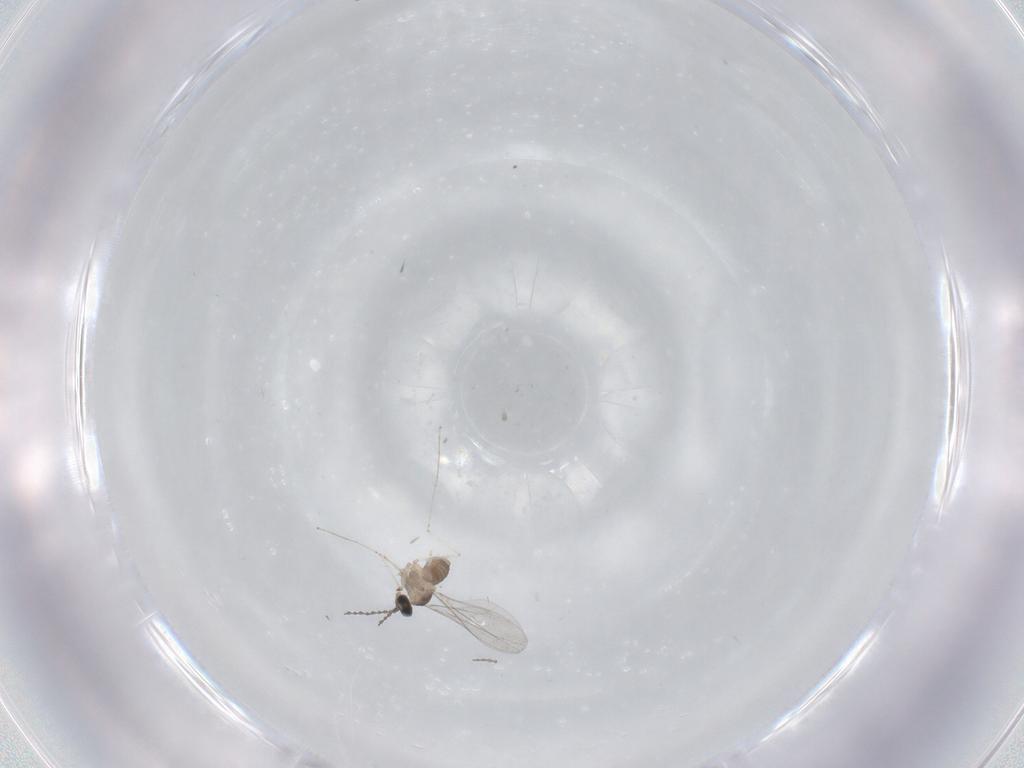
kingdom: Animalia
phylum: Arthropoda
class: Insecta
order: Diptera
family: Cecidomyiidae
